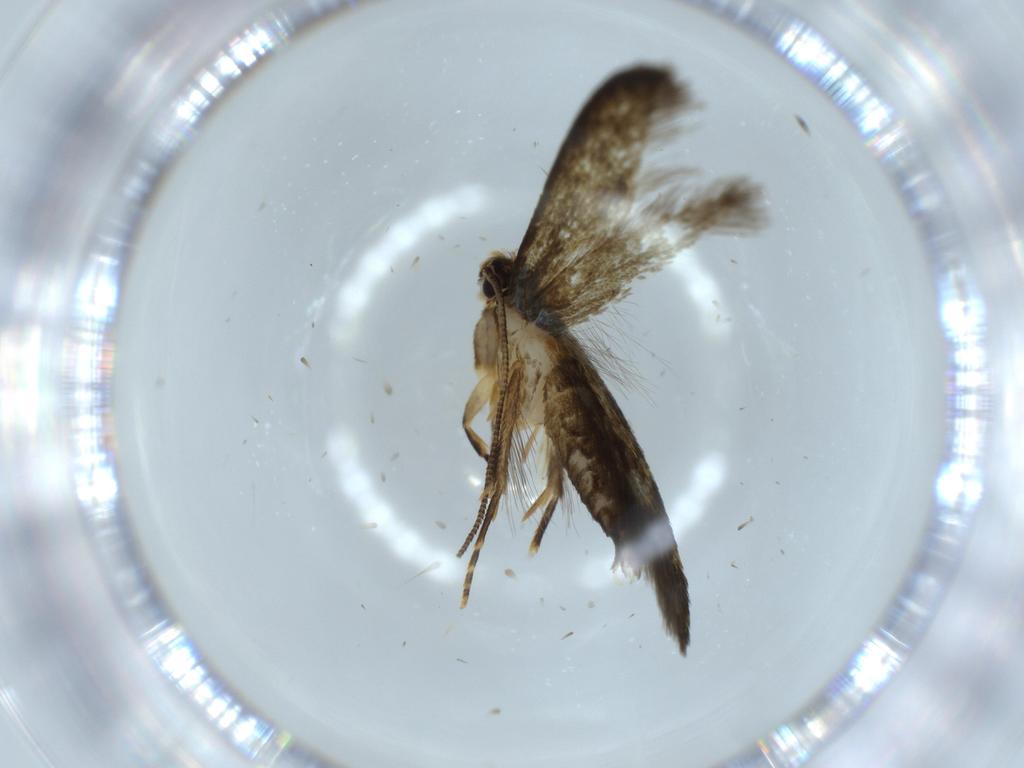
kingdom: Animalia
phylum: Arthropoda
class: Insecta
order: Lepidoptera
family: Tineidae
